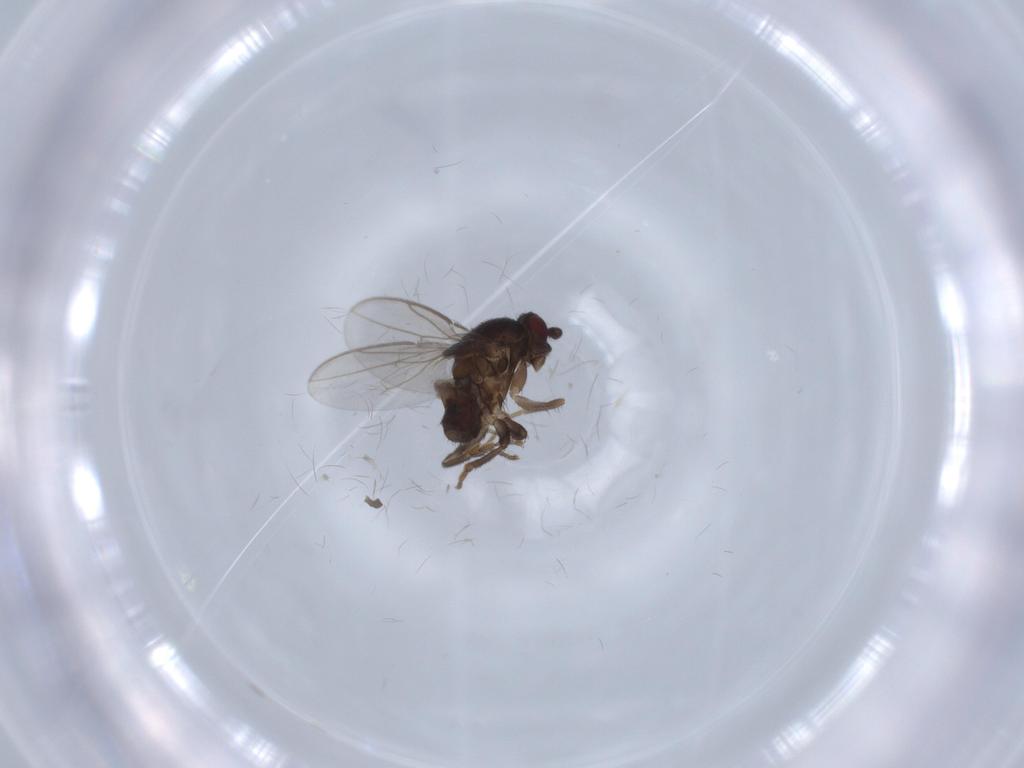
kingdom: Animalia
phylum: Arthropoda
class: Insecta
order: Diptera
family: Sphaeroceridae
